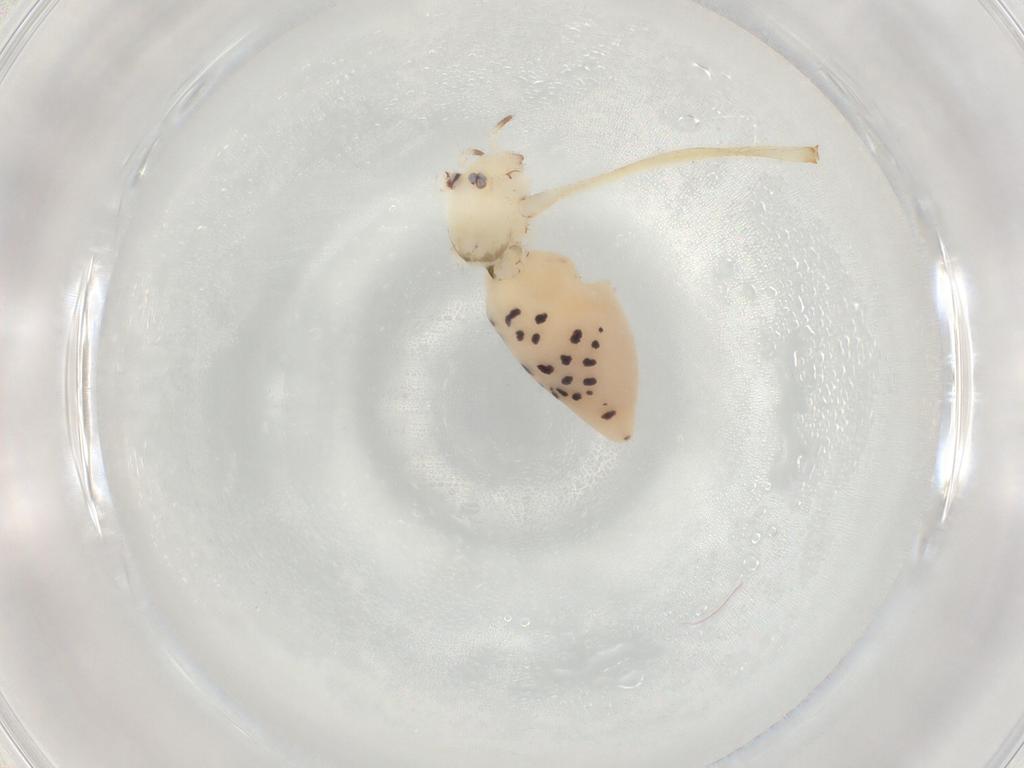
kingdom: Animalia
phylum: Arthropoda
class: Arachnida
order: Araneae
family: Pholcidae
